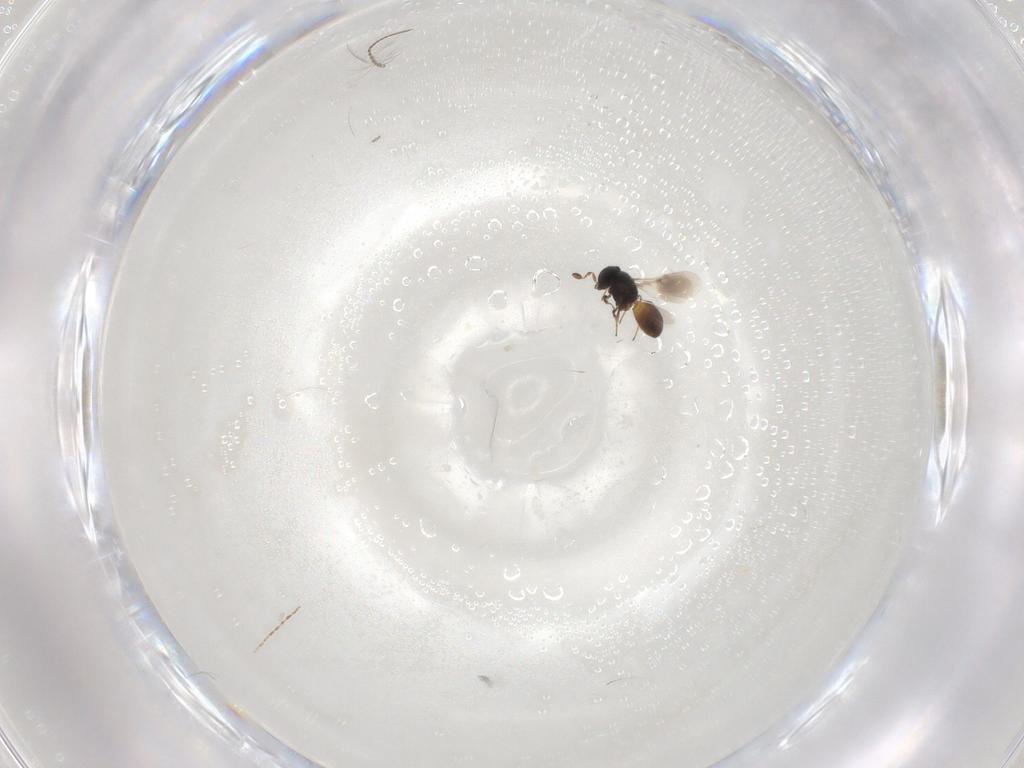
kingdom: Animalia
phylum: Arthropoda
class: Insecta
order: Hymenoptera
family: Scelionidae
